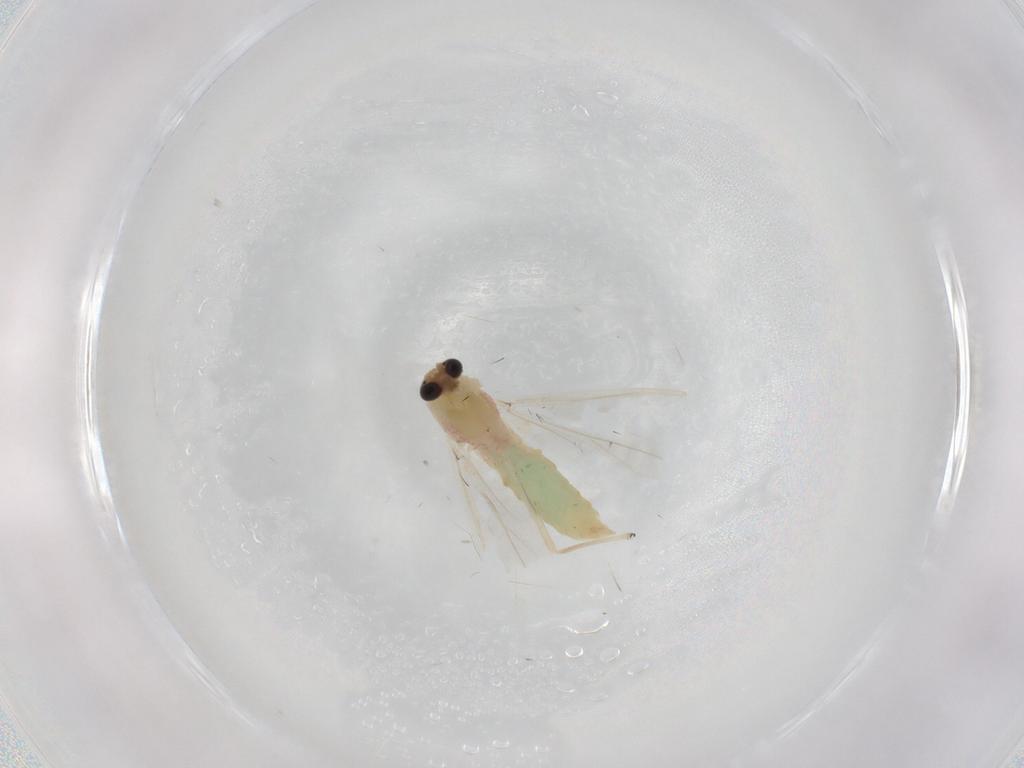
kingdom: Animalia
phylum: Arthropoda
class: Insecta
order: Diptera
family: Chironomidae
